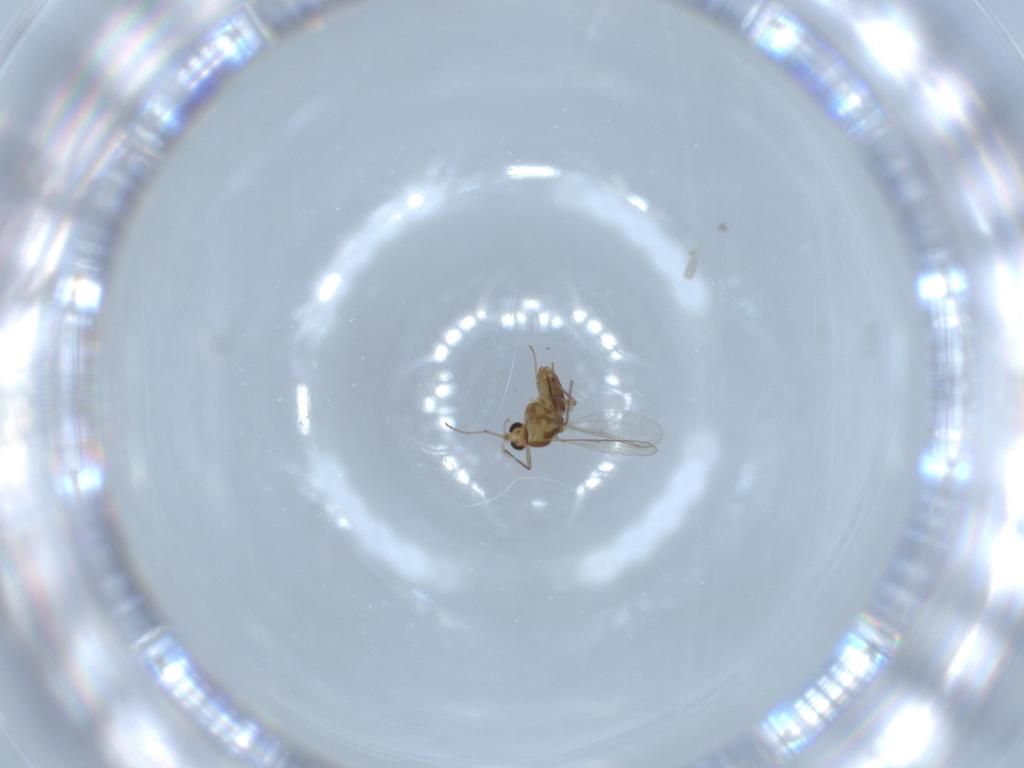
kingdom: Animalia
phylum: Arthropoda
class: Insecta
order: Diptera
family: Chironomidae
